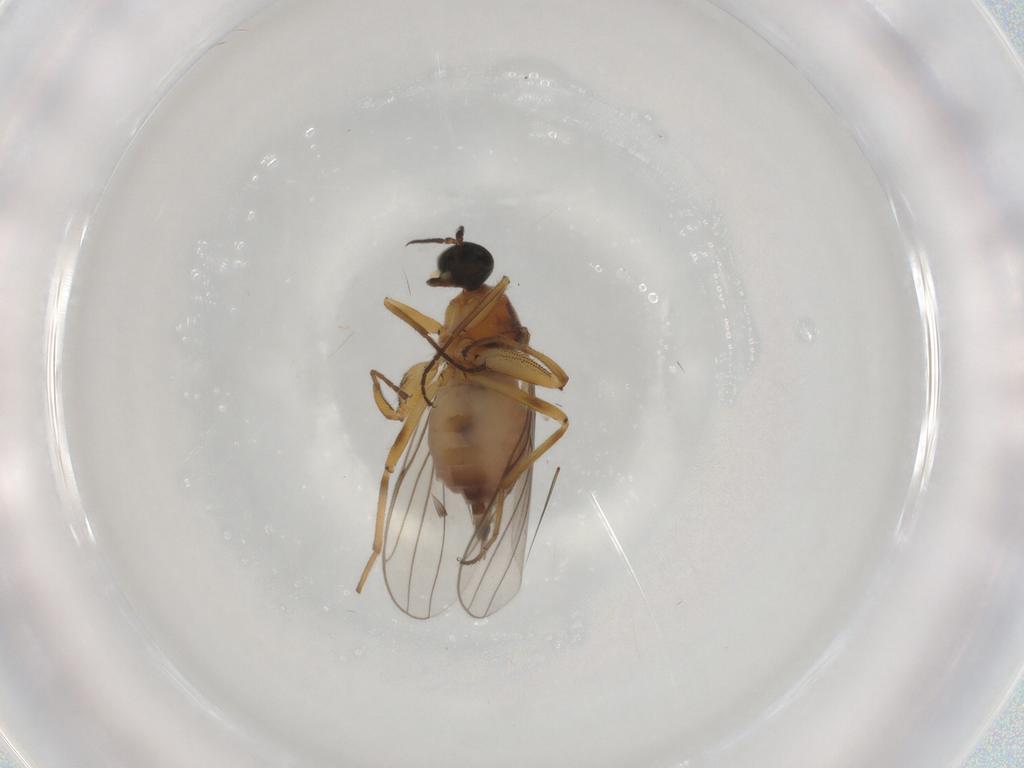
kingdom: Animalia
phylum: Arthropoda
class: Insecta
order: Diptera
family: Hybotidae
